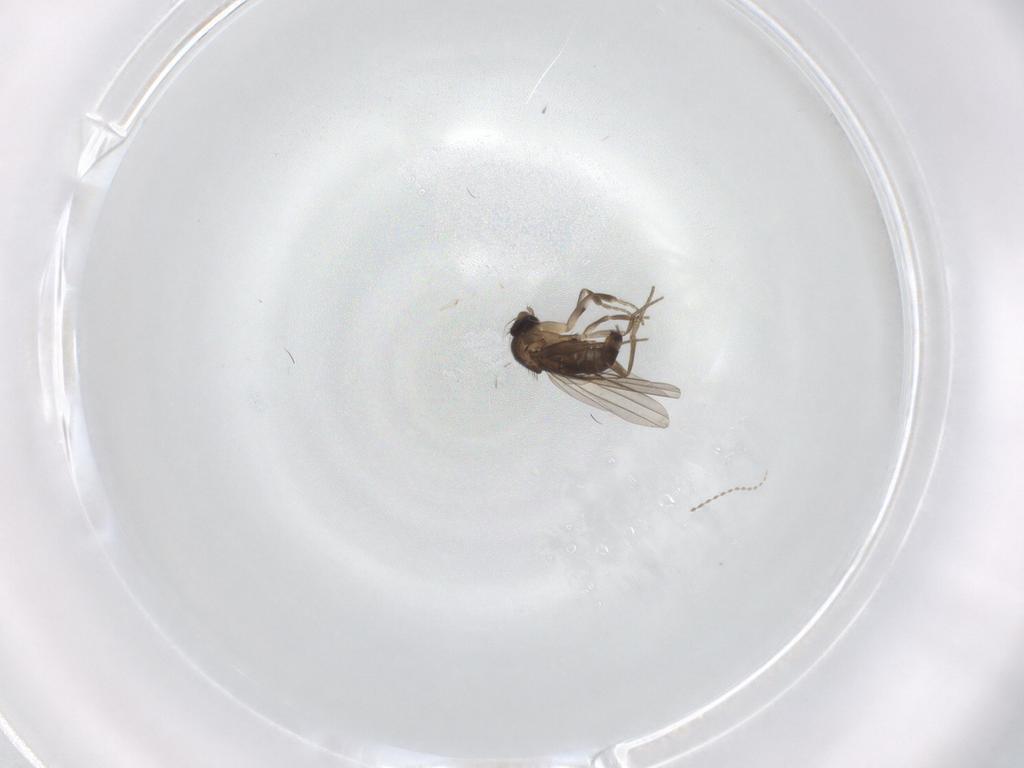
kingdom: Animalia
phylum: Arthropoda
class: Insecta
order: Diptera
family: Phoridae
